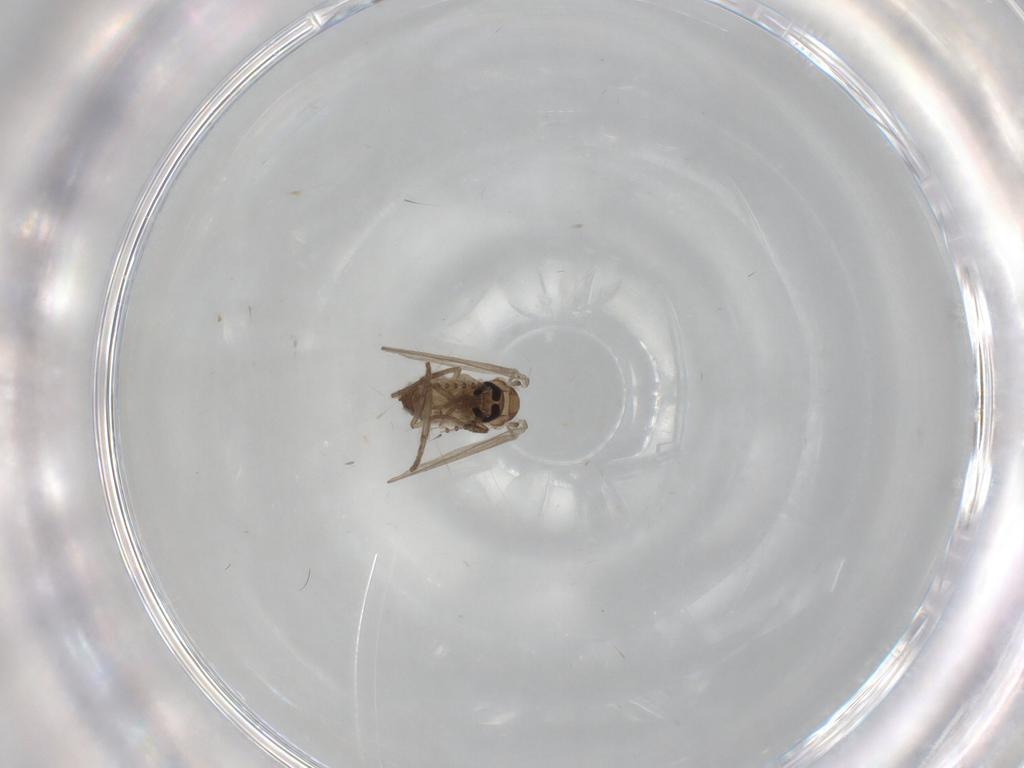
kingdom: Animalia
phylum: Arthropoda
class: Insecta
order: Diptera
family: Psychodidae
